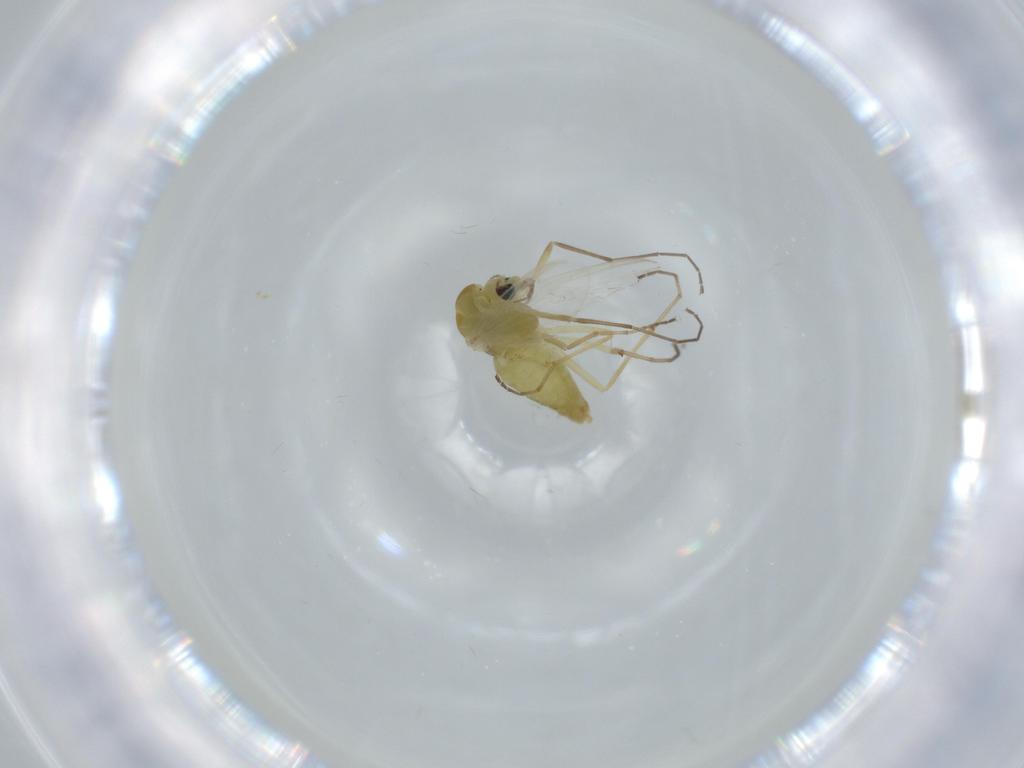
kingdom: Animalia
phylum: Arthropoda
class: Insecta
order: Diptera
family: Chironomidae
